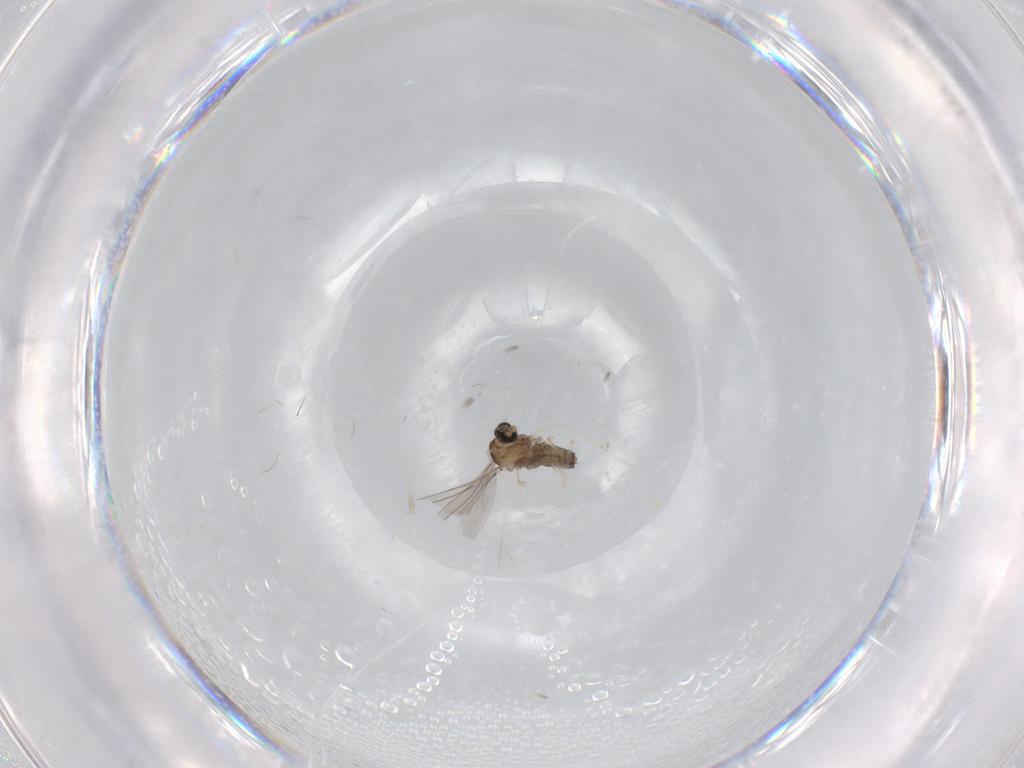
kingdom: Animalia
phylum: Arthropoda
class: Insecta
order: Diptera
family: Cecidomyiidae
